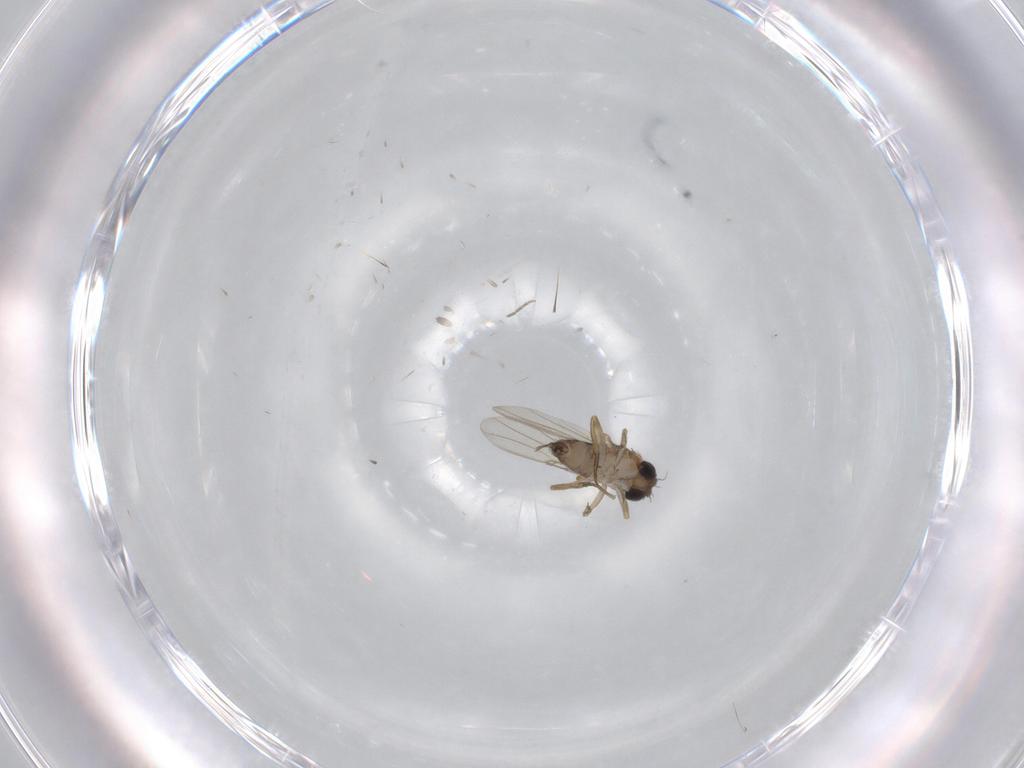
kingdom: Animalia
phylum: Arthropoda
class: Insecta
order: Diptera
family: Phoridae
